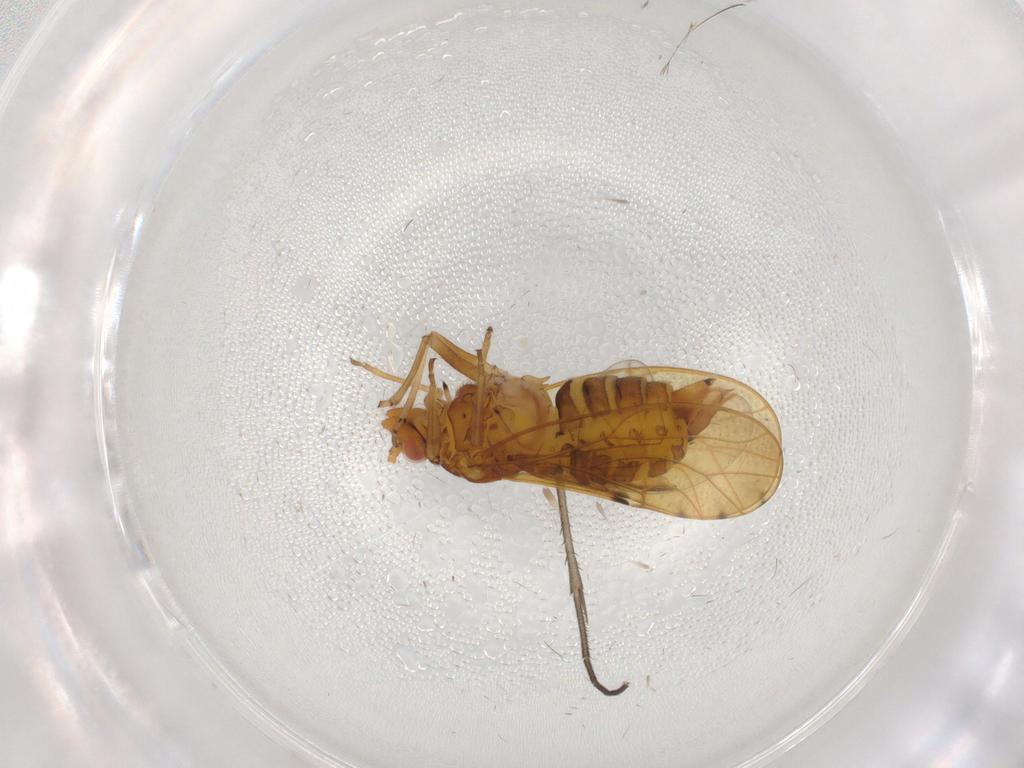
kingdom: Animalia
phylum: Arthropoda
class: Insecta
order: Hemiptera
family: Psylloidea_incertae_sedis
